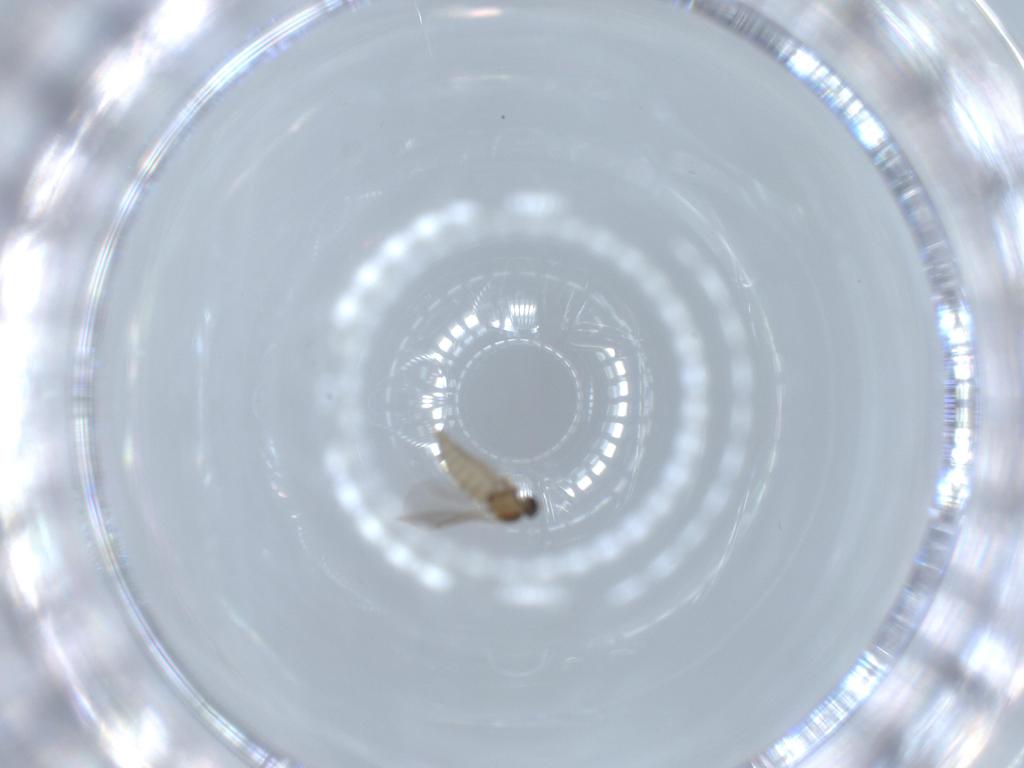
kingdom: Animalia
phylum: Arthropoda
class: Insecta
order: Diptera
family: Cecidomyiidae
